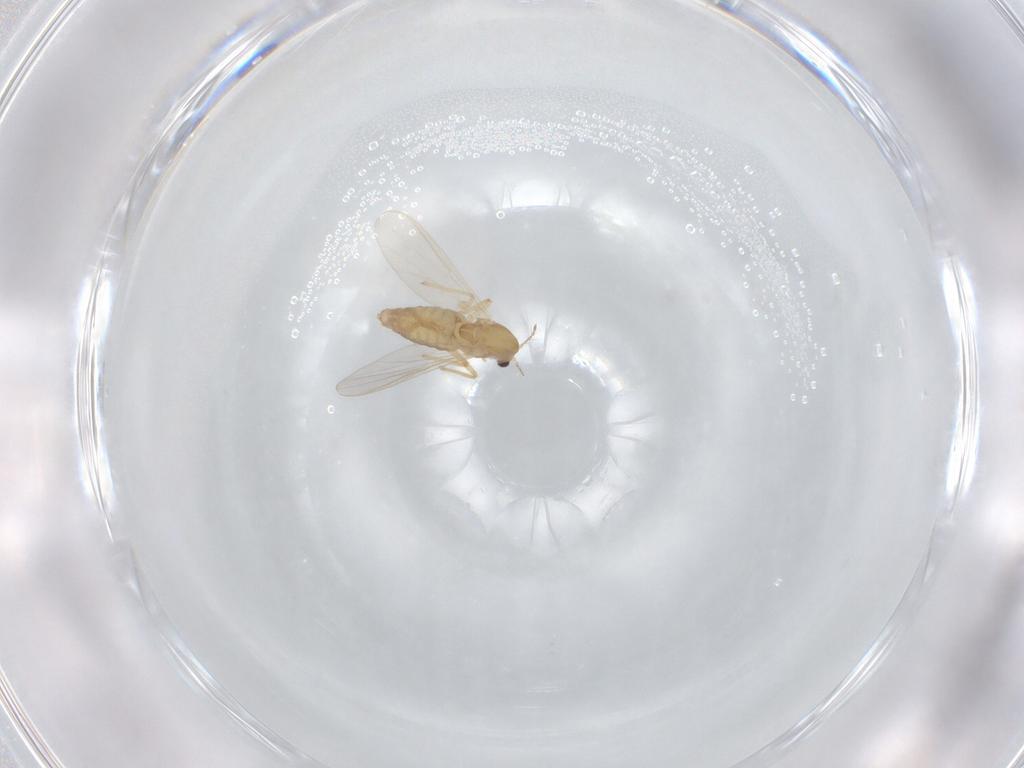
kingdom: Animalia
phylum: Arthropoda
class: Insecta
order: Diptera
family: Chironomidae
